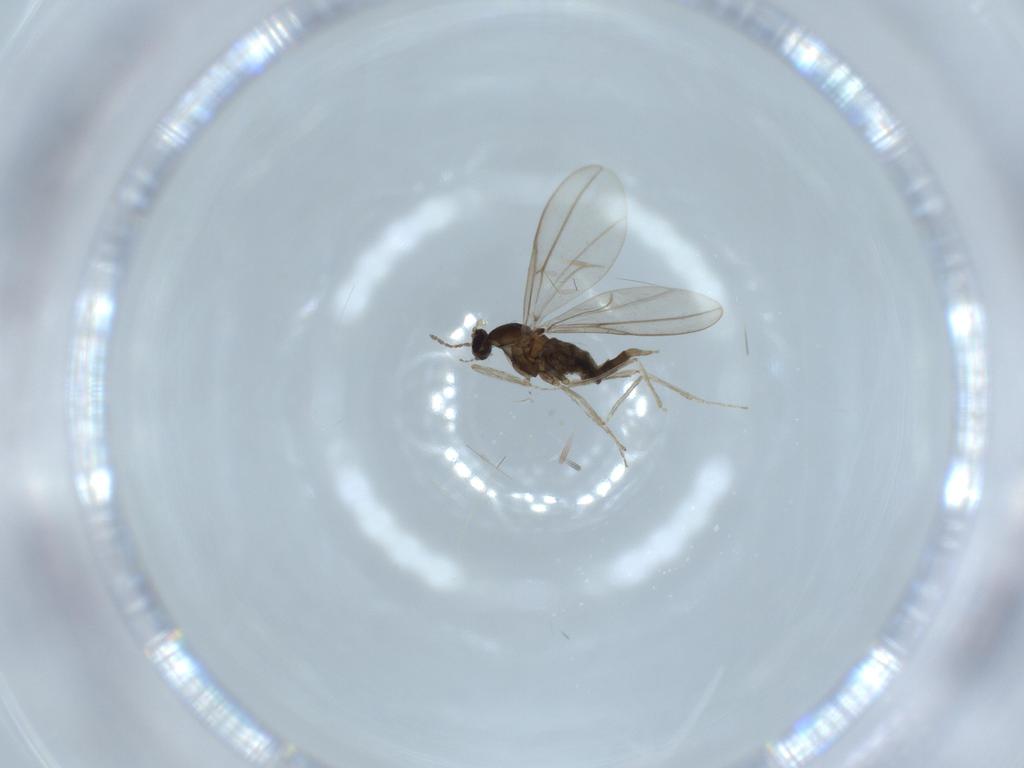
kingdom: Animalia
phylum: Arthropoda
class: Insecta
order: Diptera
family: Cecidomyiidae
